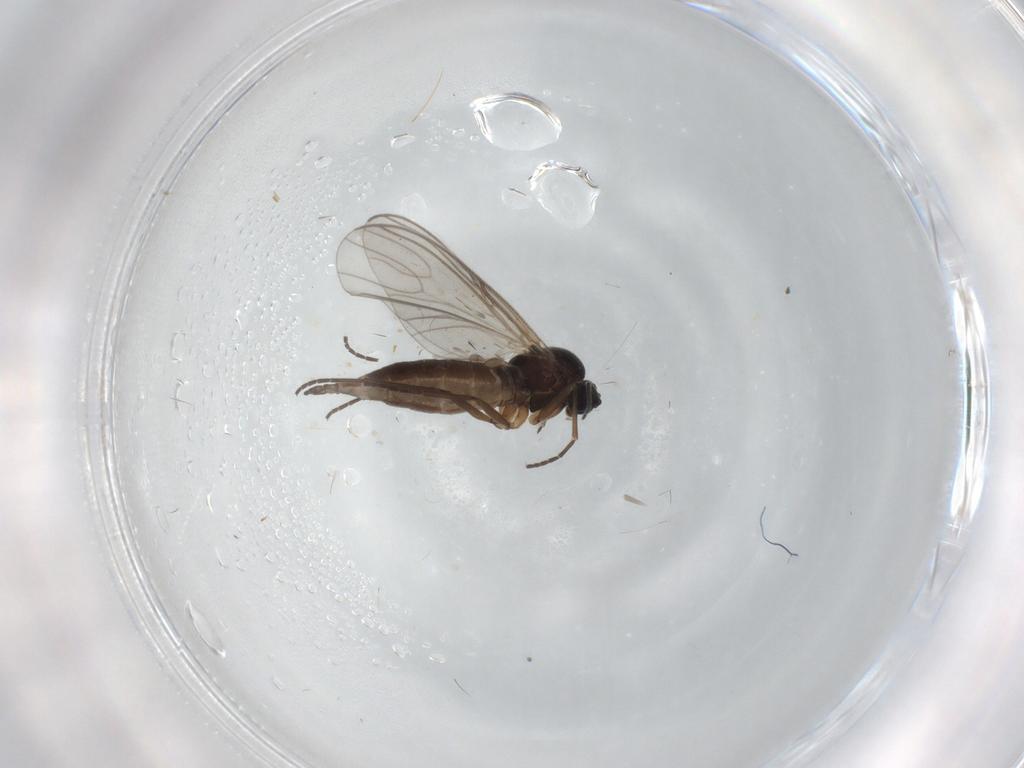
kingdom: Animalia
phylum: Arthropoda
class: Insecta
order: Diptera
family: Sciaridae
